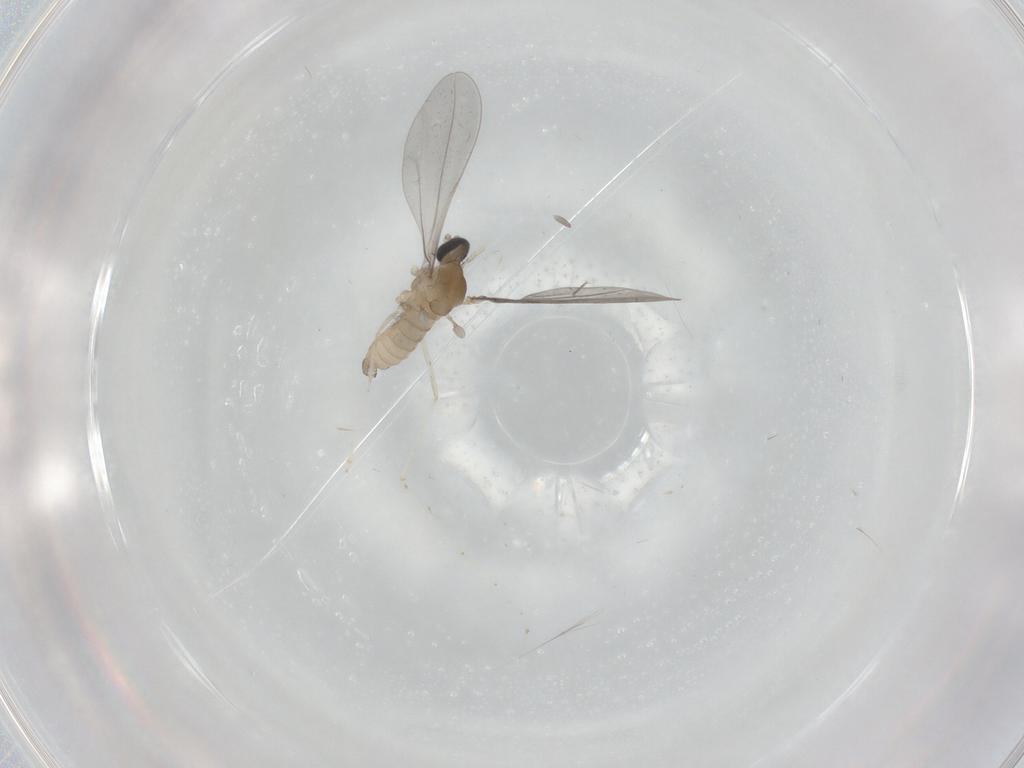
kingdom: Animalia
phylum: Arthropoda
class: Insecta
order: Diptera
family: Cecidomyiidae
